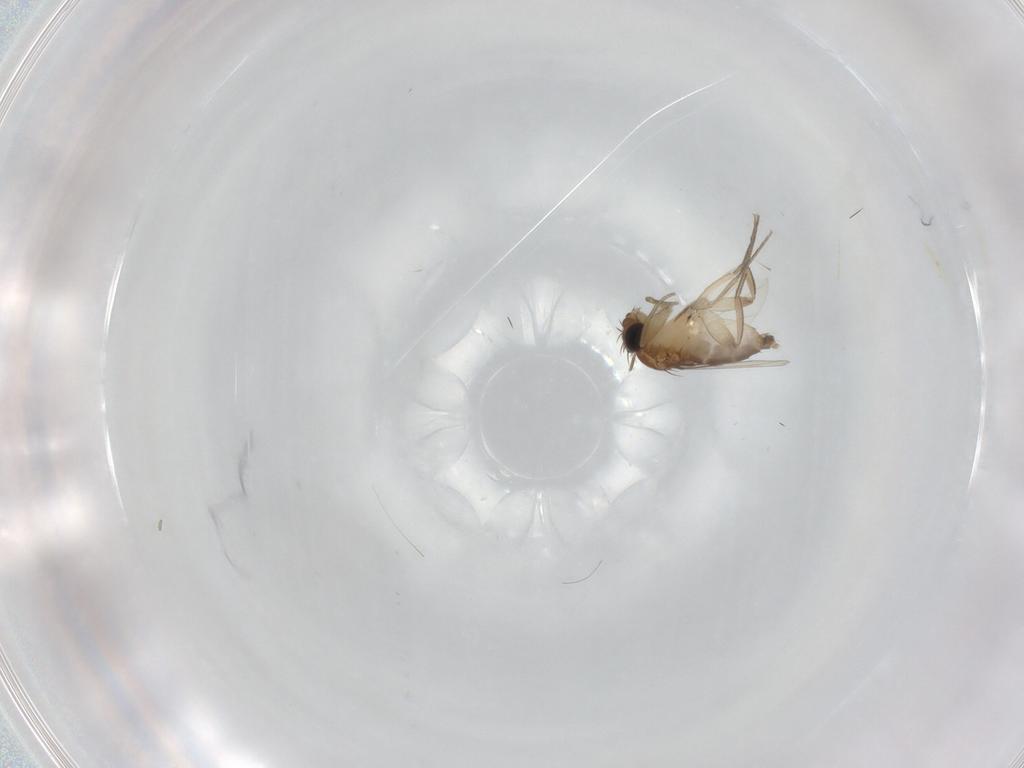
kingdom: Animalia
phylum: Arthropoda
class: Insecta
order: Diptera
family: Phoridae
